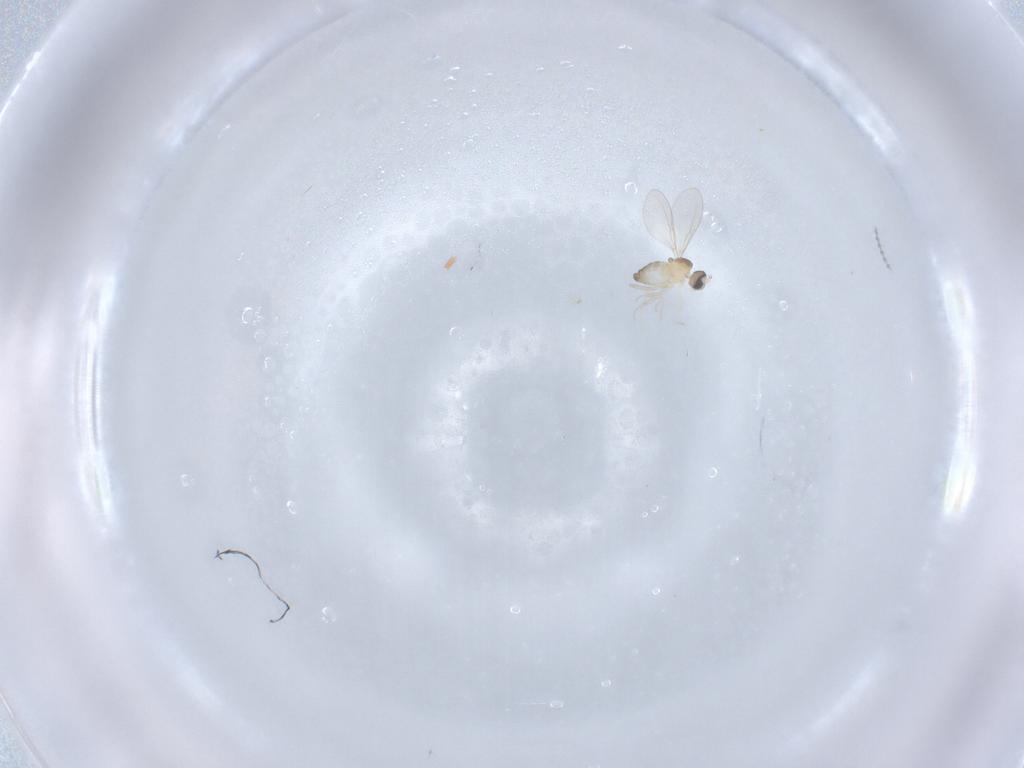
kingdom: Animalia
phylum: Arthropoda
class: Insecta
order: Diptera
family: Cecidomyiidae
